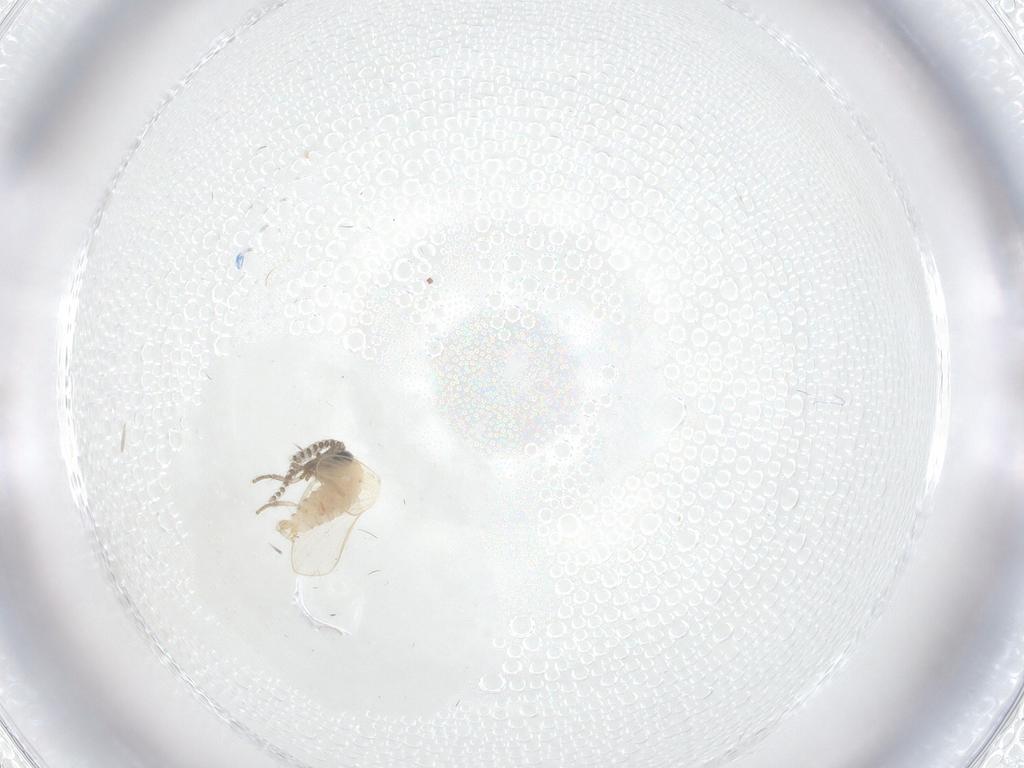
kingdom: Animalia
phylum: Arthropoda
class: Insecta
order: Diptera
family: Psychodidae
